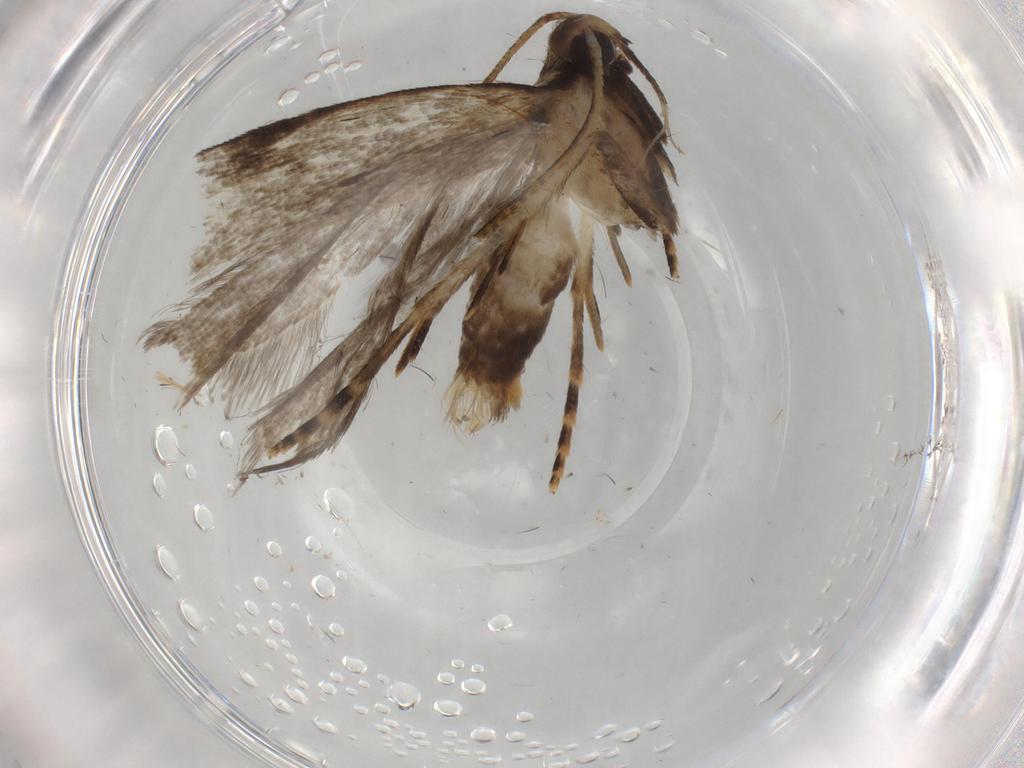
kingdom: Animalia
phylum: Arthropoda
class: Insecta
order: Lepidoptera
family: Gelechiidae
